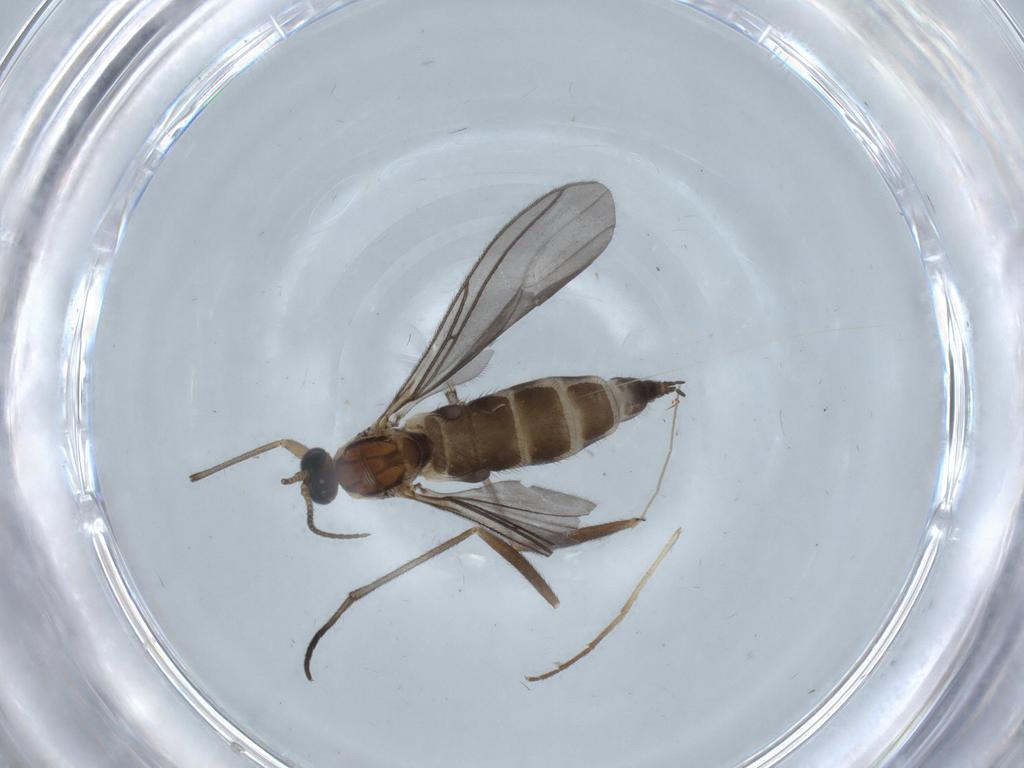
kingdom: Animalia
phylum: Arthropoda
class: Insecta
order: Diptera
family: Sciaridae
